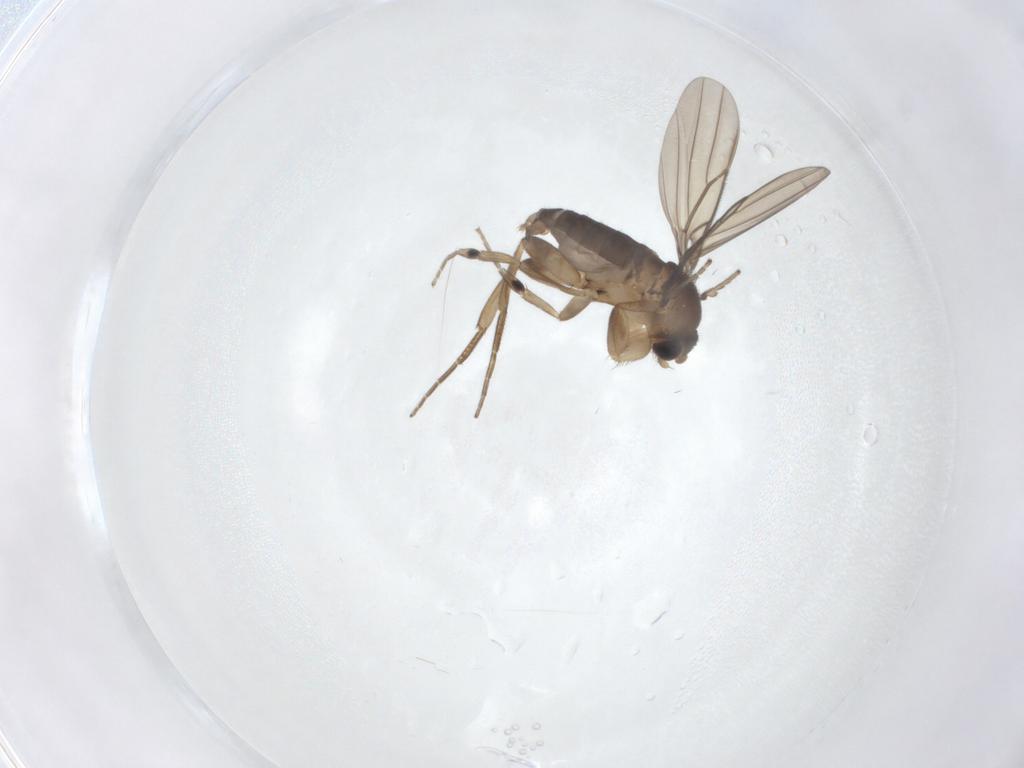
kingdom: Animalia
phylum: Arthropoda
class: Insecta
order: Diptera
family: Phoridae
